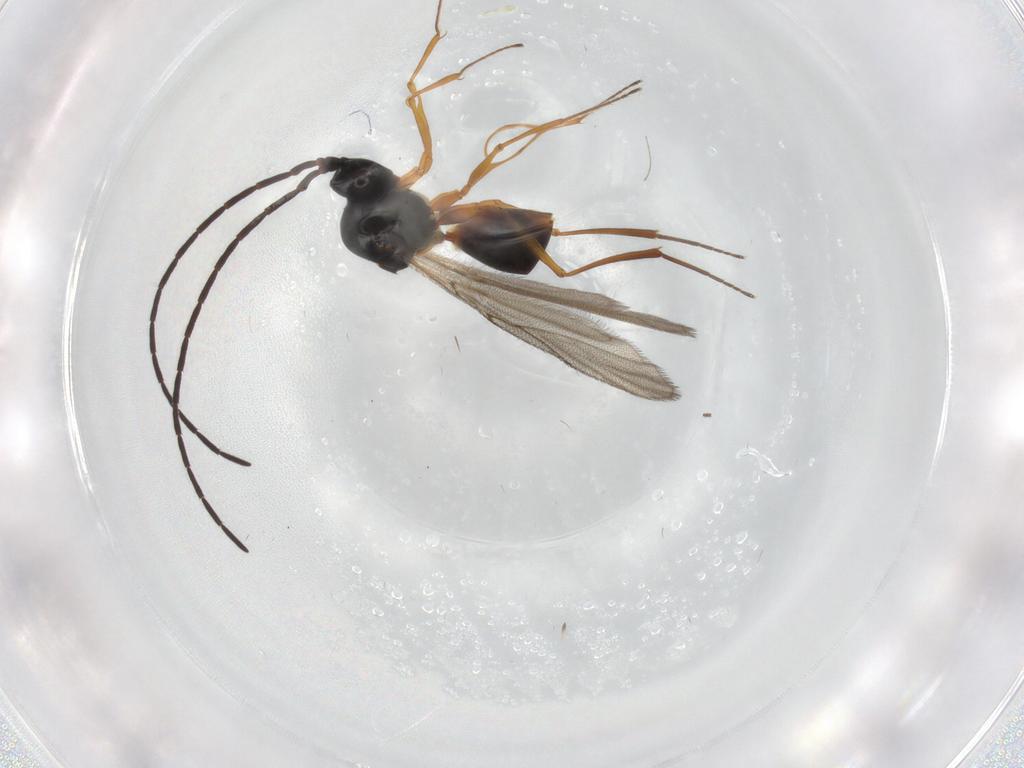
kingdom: Animalia
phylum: Arthropoda
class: Insecta
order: Hymenoptera
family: Figitidae
